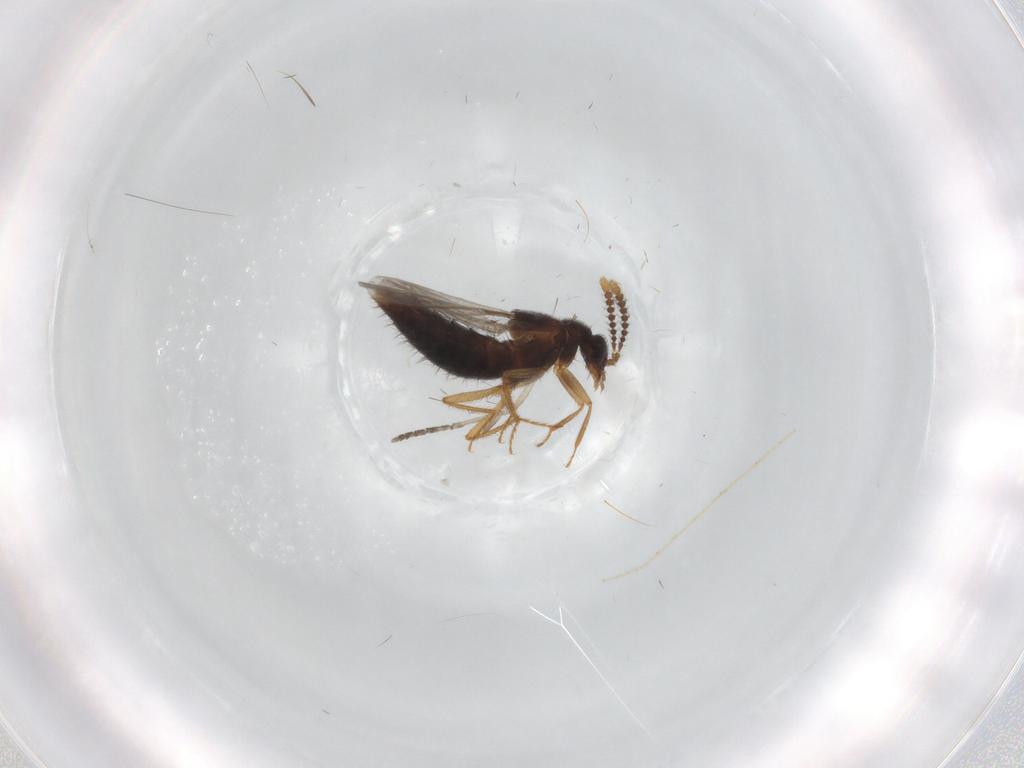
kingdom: Animalia
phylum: Arthropoda
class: Insecta
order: Coleoptera
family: Staphylinidae
